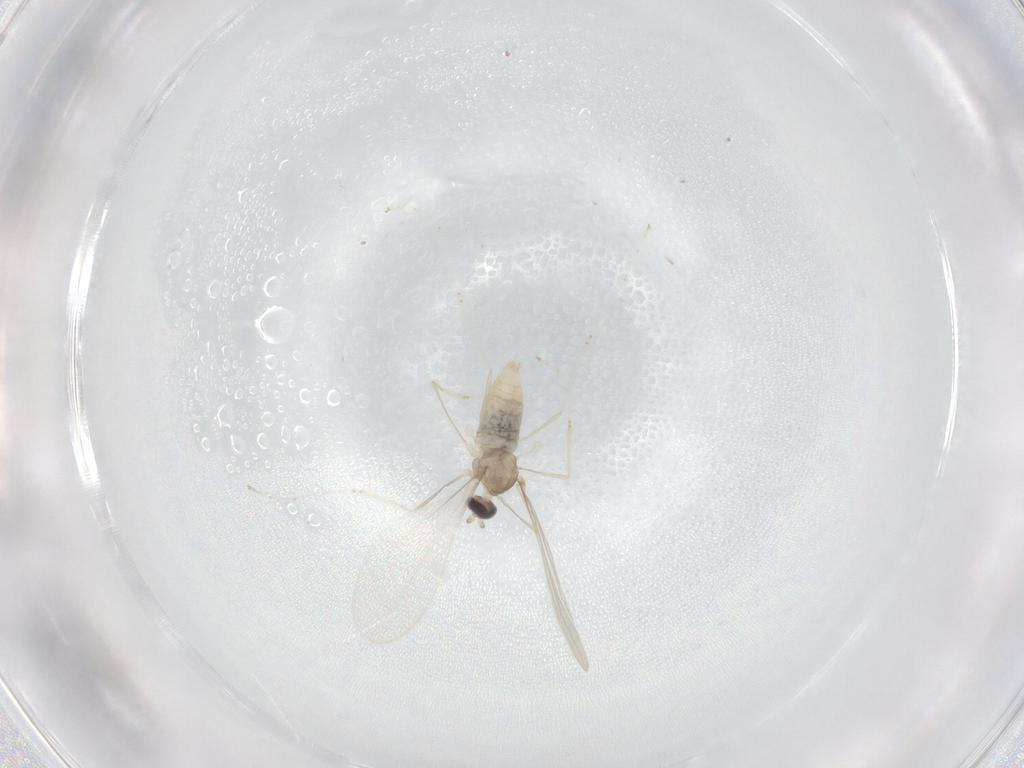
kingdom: Animalia
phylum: Arthropoda
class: Insecta
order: Diptera
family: Cecidomyiidae
